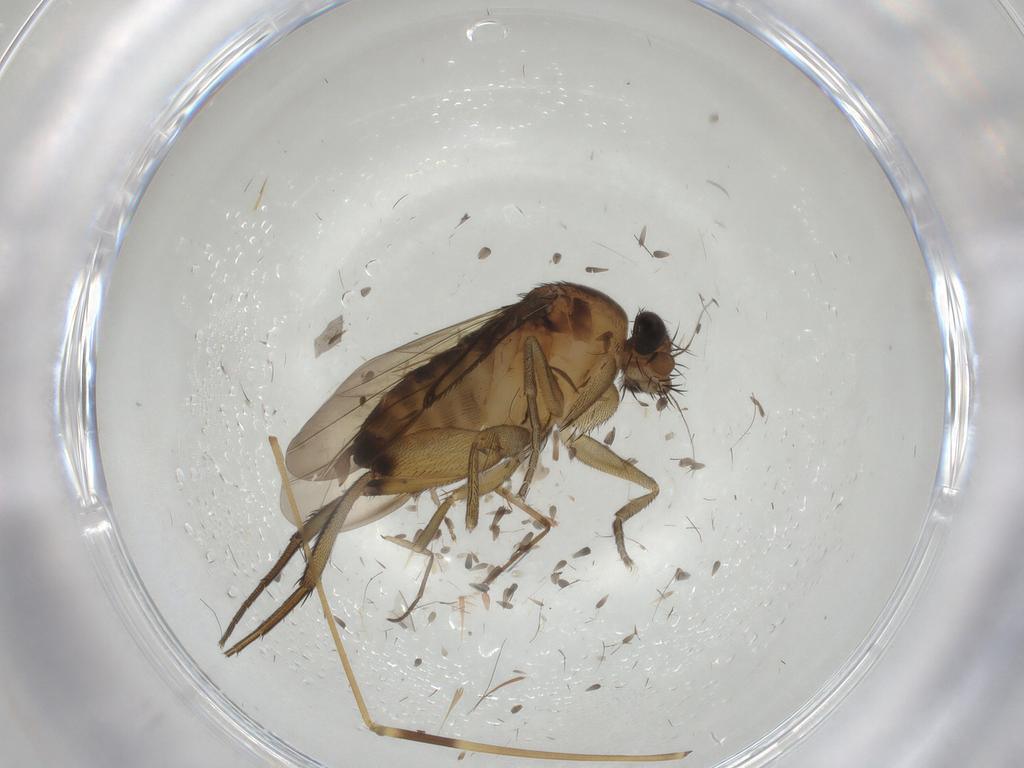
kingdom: Animalia
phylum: Arthropoda
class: Insecta
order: Diptera
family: Phoridae
